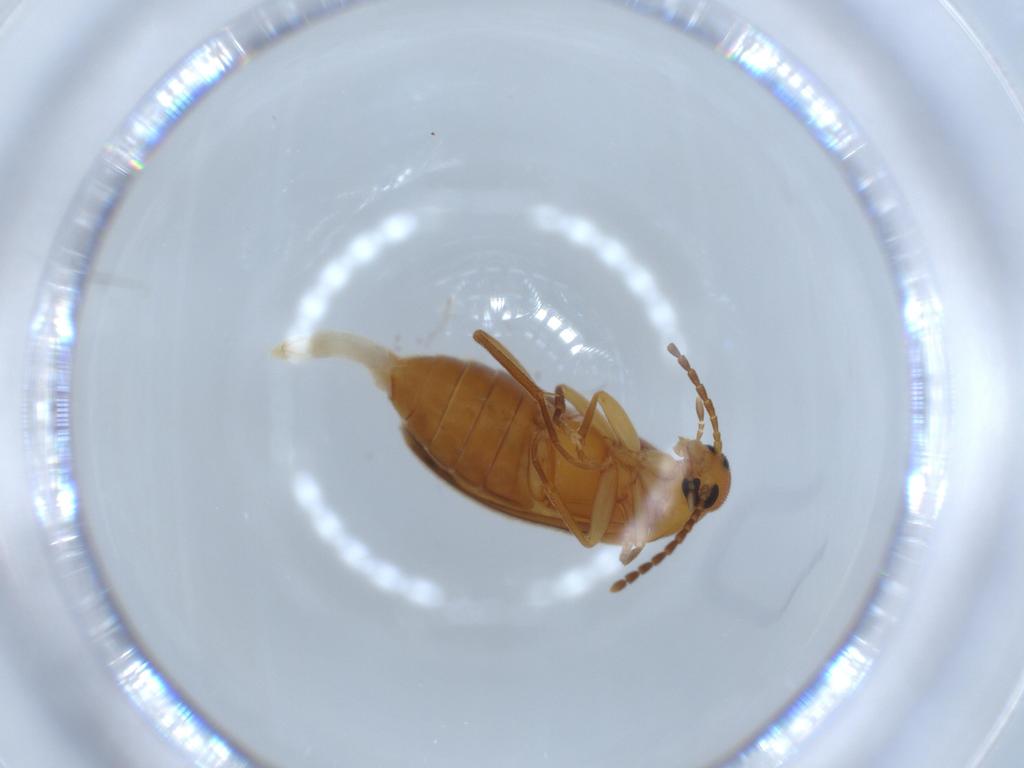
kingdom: Animalia
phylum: Arthropoda
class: Insecta
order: Coleoptera
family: Scraptiidae
